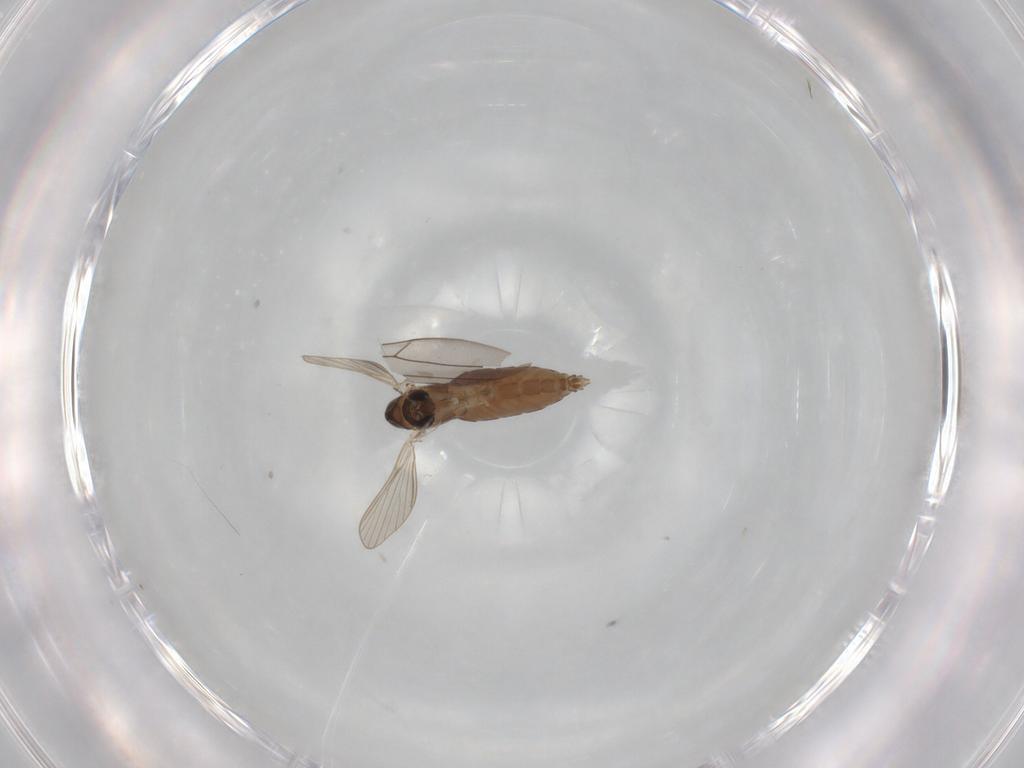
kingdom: Animalia
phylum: Arthropoda
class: Insecta
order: Diptera
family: Psychodidae
